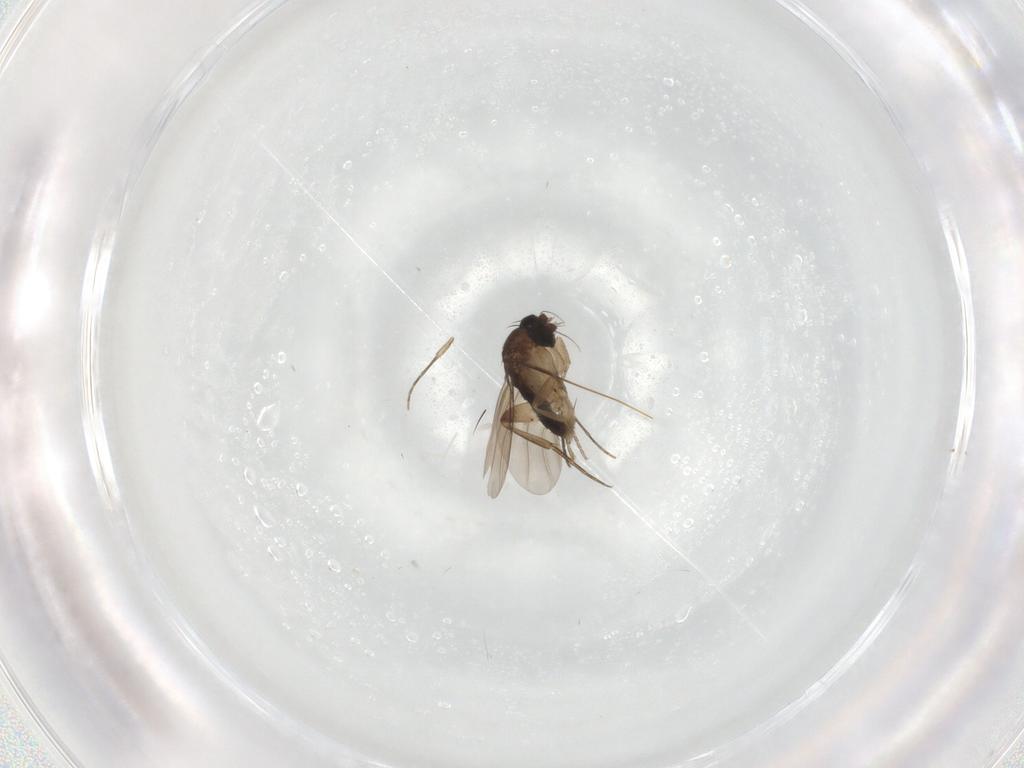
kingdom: Animalia
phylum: Arthropoda
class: Insecta
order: Diptera
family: Phoridae
